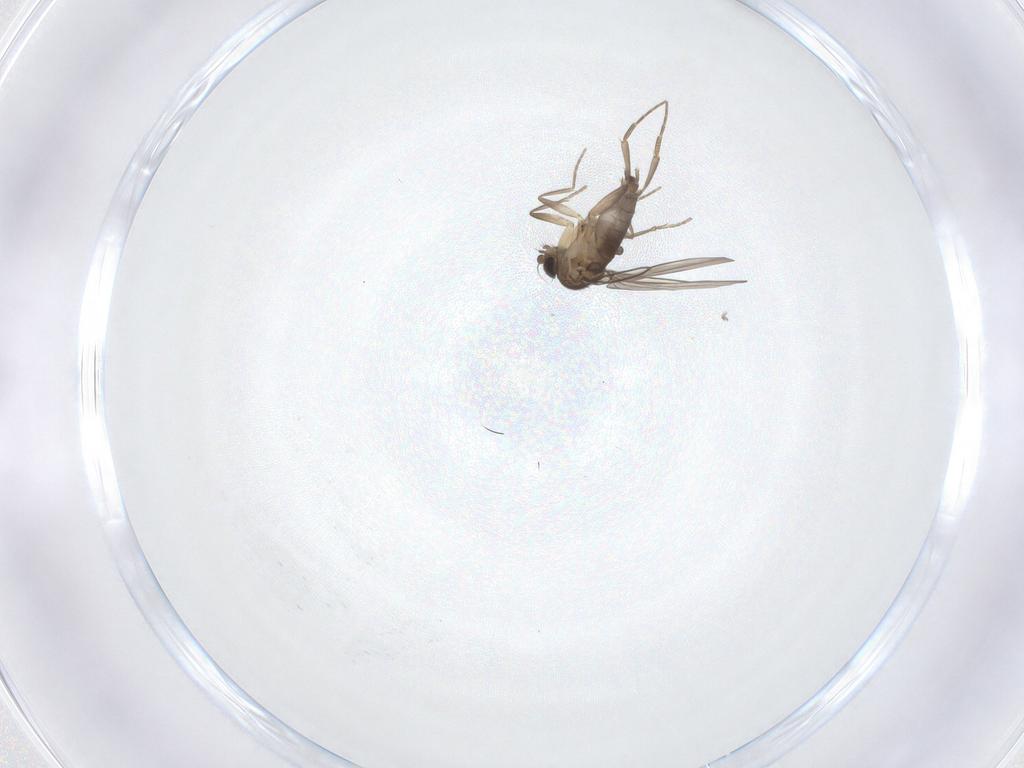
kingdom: Animalia
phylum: Arthropoda
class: Insecta
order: Diptera
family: Phoridae
